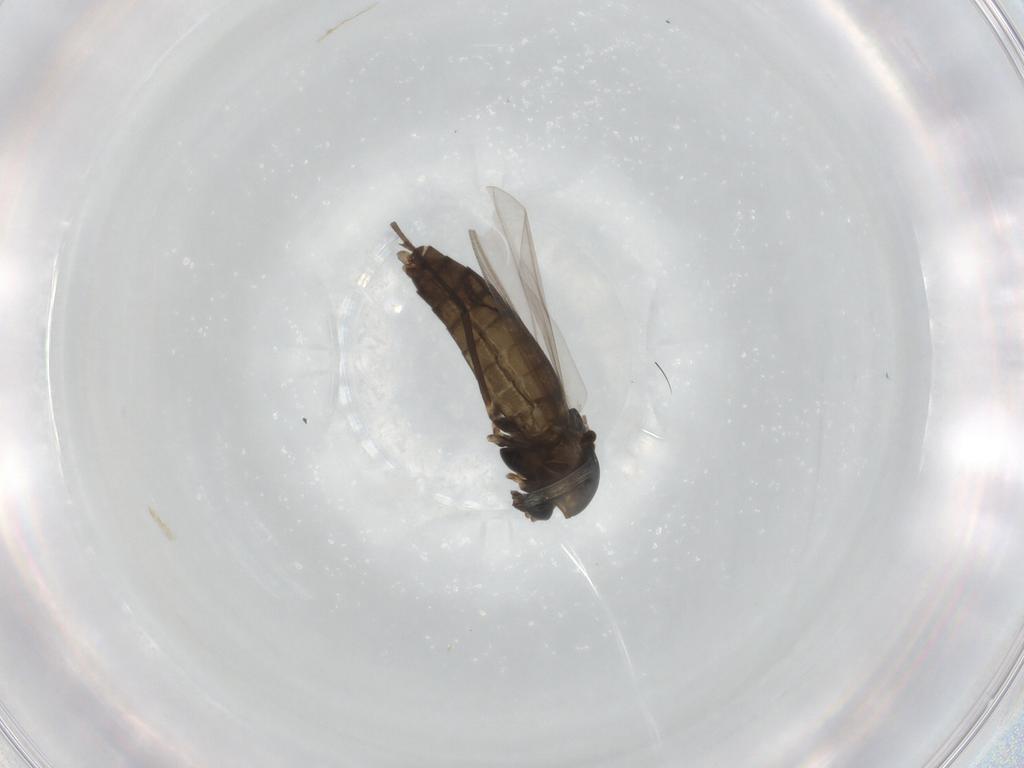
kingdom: Animalia
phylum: Arthropoda
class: Insecta
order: Diptera
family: Chironomidae
